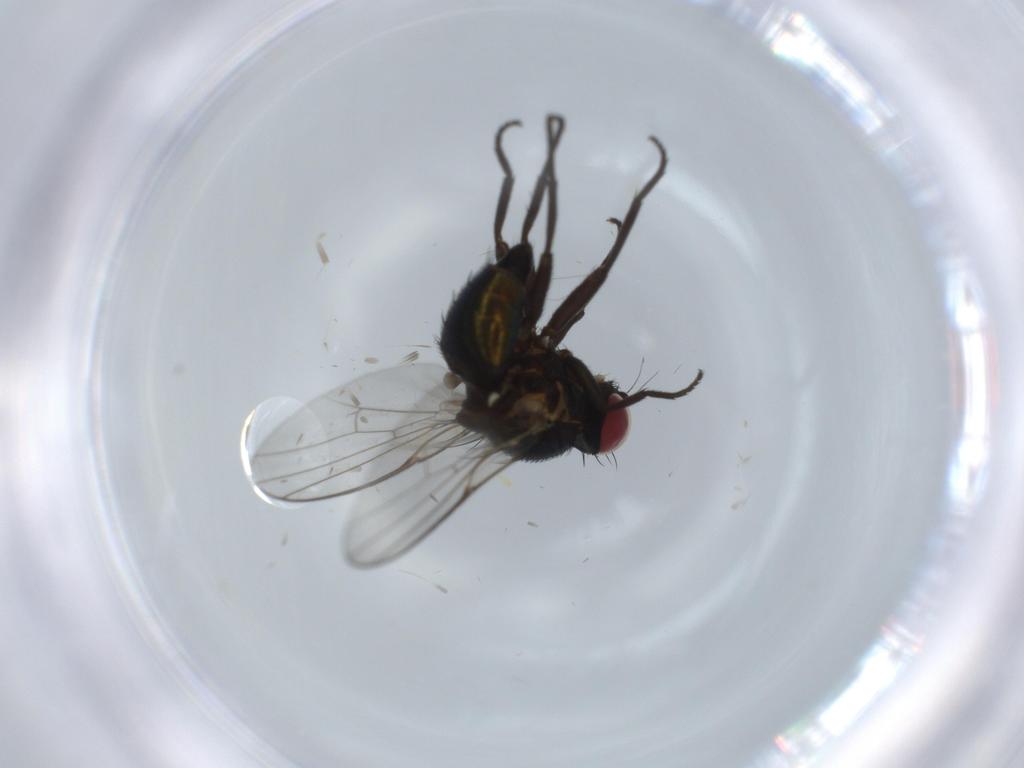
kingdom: Animalia
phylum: Arthropoda
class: Insecta
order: Diptera
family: Agromyzidae
